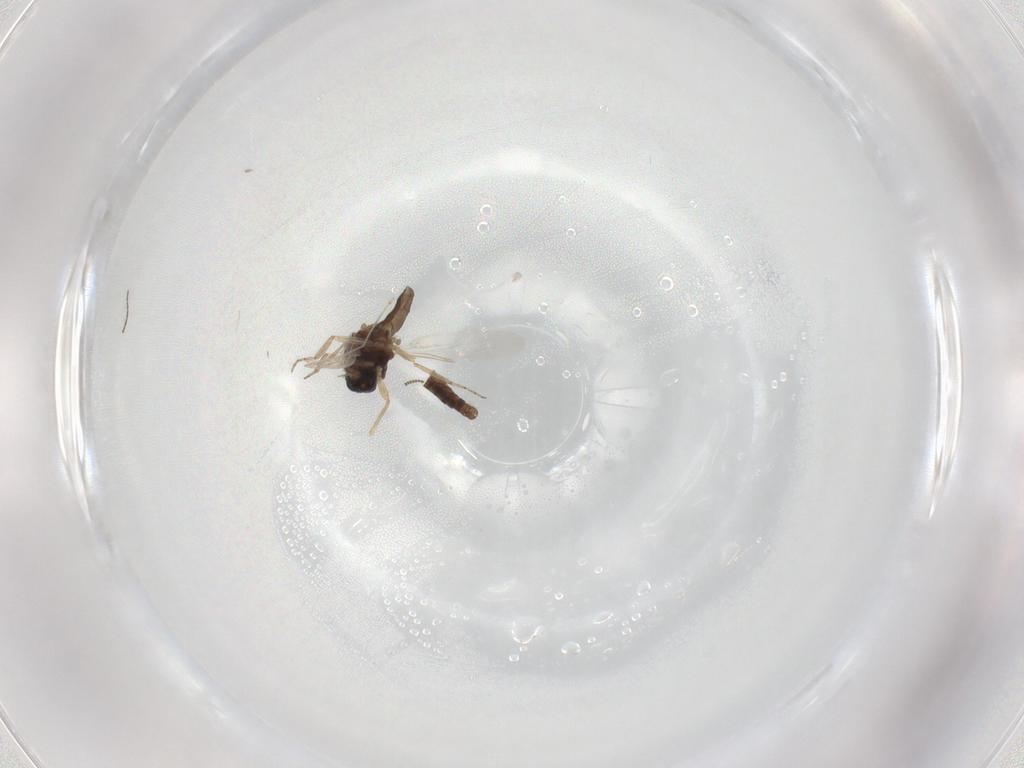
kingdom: Animalia
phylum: Arthropoda
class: Insecta
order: Diptera
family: Ceratopogonidae
